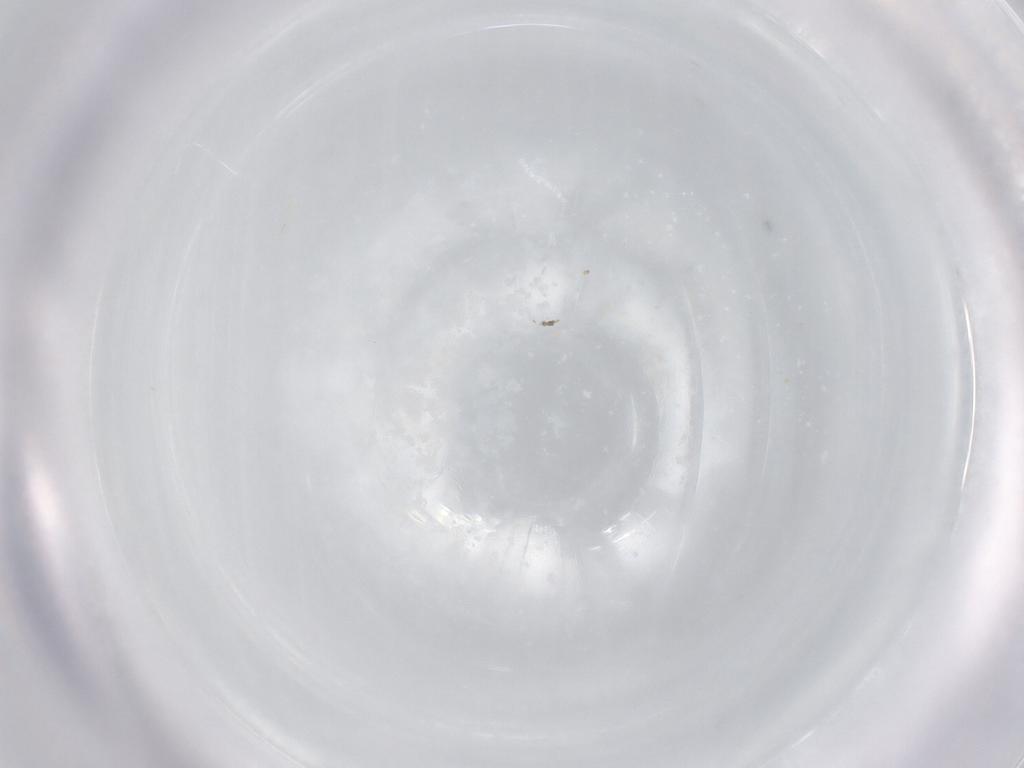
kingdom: Animalia
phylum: Arthropoda
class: Insecta
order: Hymenoptera
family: Mymaridae
